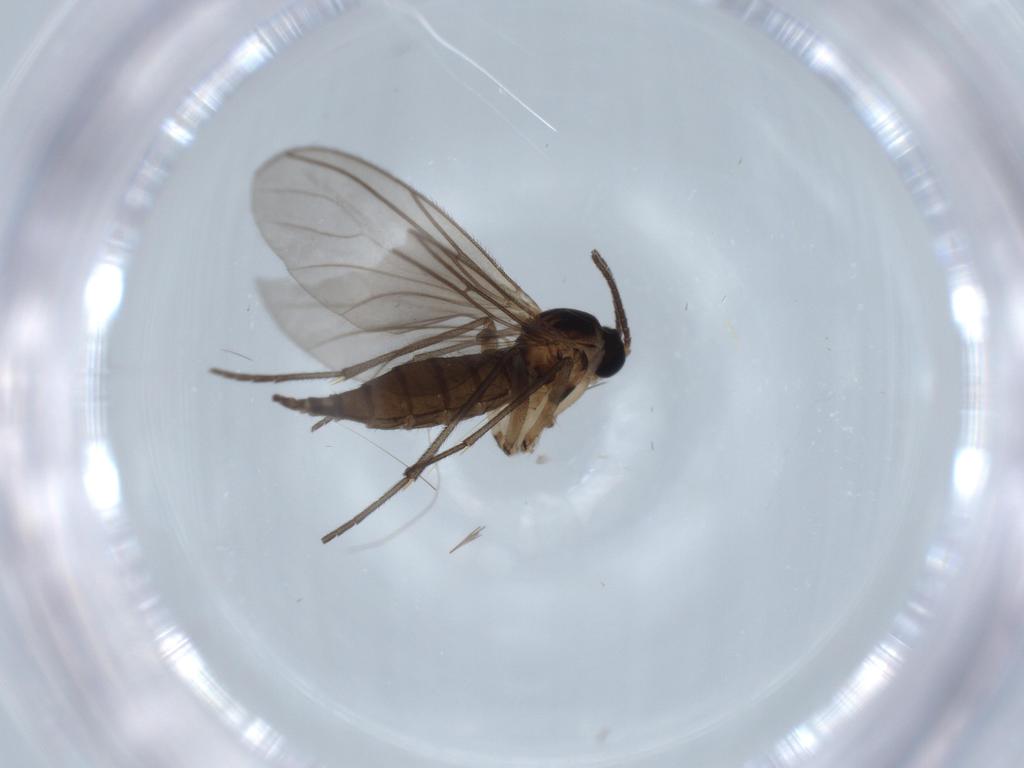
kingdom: Animalia
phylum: Arthropoda
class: Insecta
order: Diptera
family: Sciaridae
